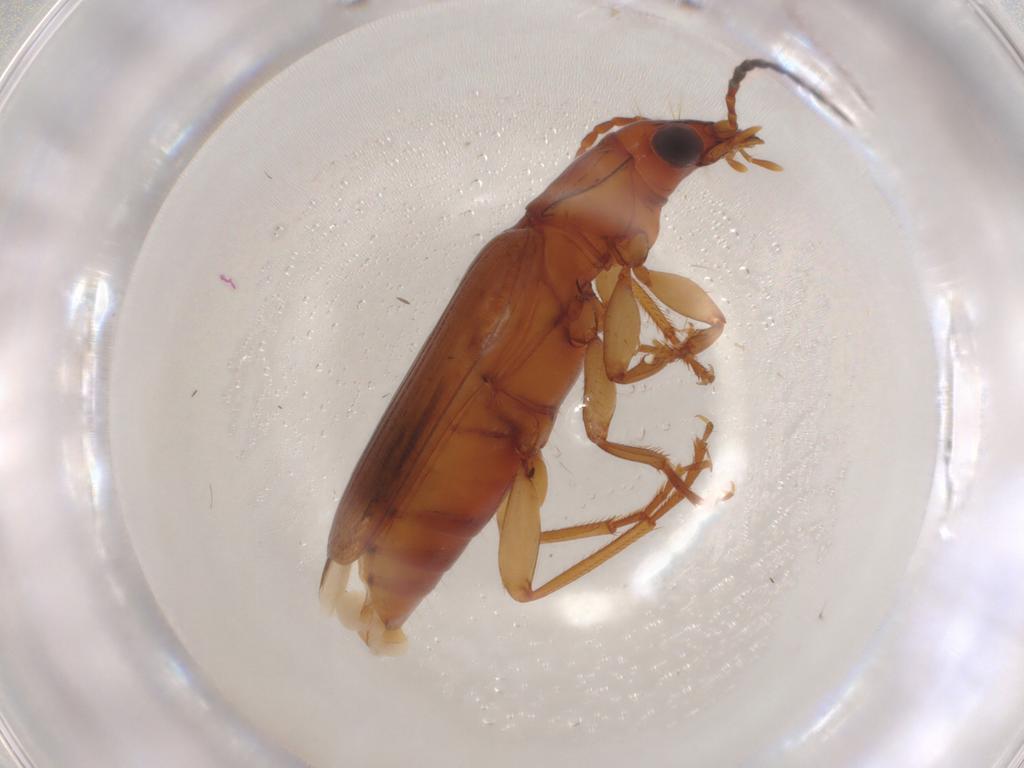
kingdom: Animalia
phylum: Arthropoda
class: Insecta
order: Coleoptera
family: Carabidae
